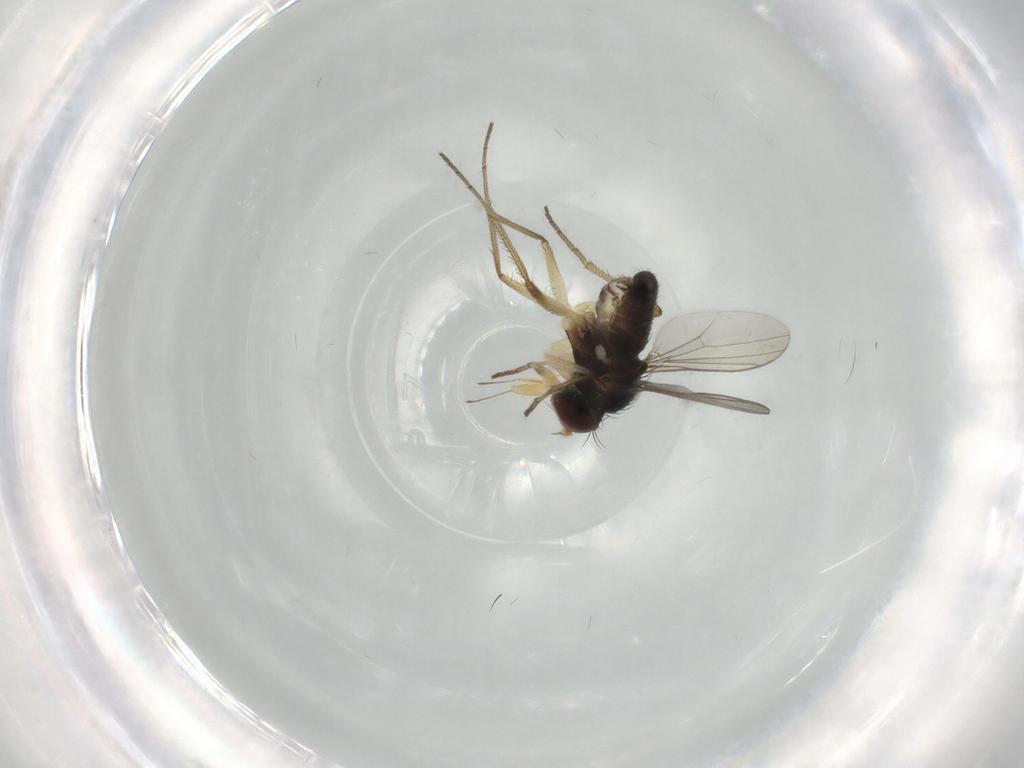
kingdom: Animalia
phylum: Arthropoda
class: Insecta
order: Diptera
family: Dolichopodidae
